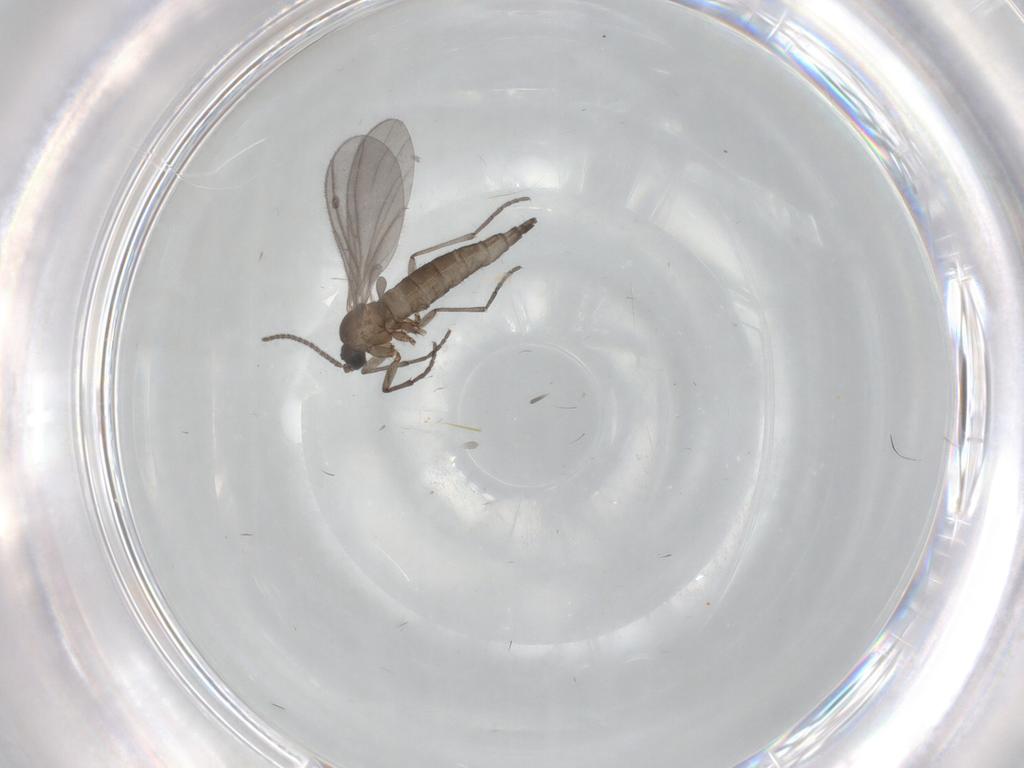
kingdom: Animalia
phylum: Arthropoda
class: Insecta
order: Diptera
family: Sciaridae
